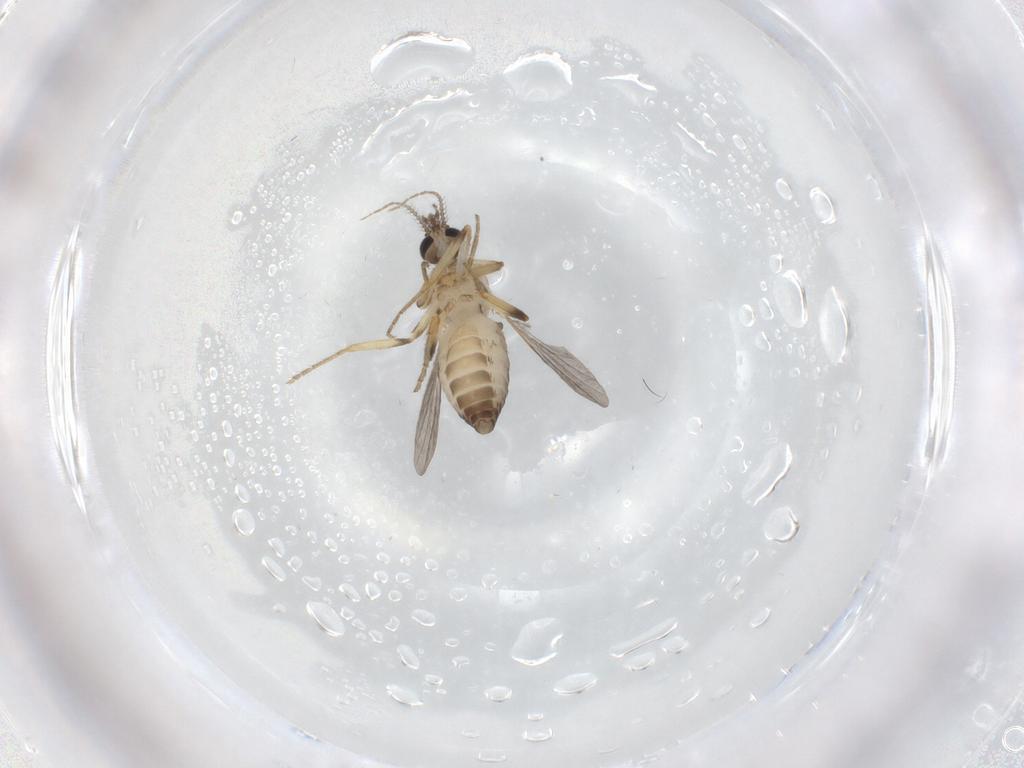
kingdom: Animalia
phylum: Arthropoda
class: Insecta
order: Diptera
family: Ceratopogonidae
